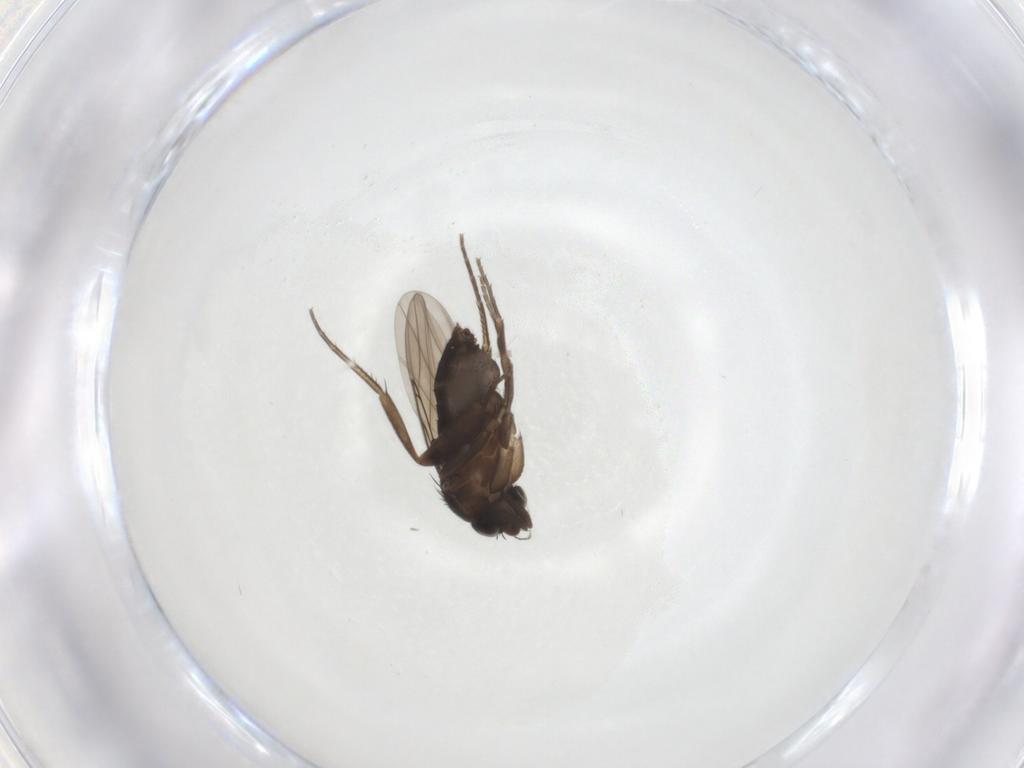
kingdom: Animalia
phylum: Arthropoda
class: Insecta
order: Diptera
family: Phoridae
